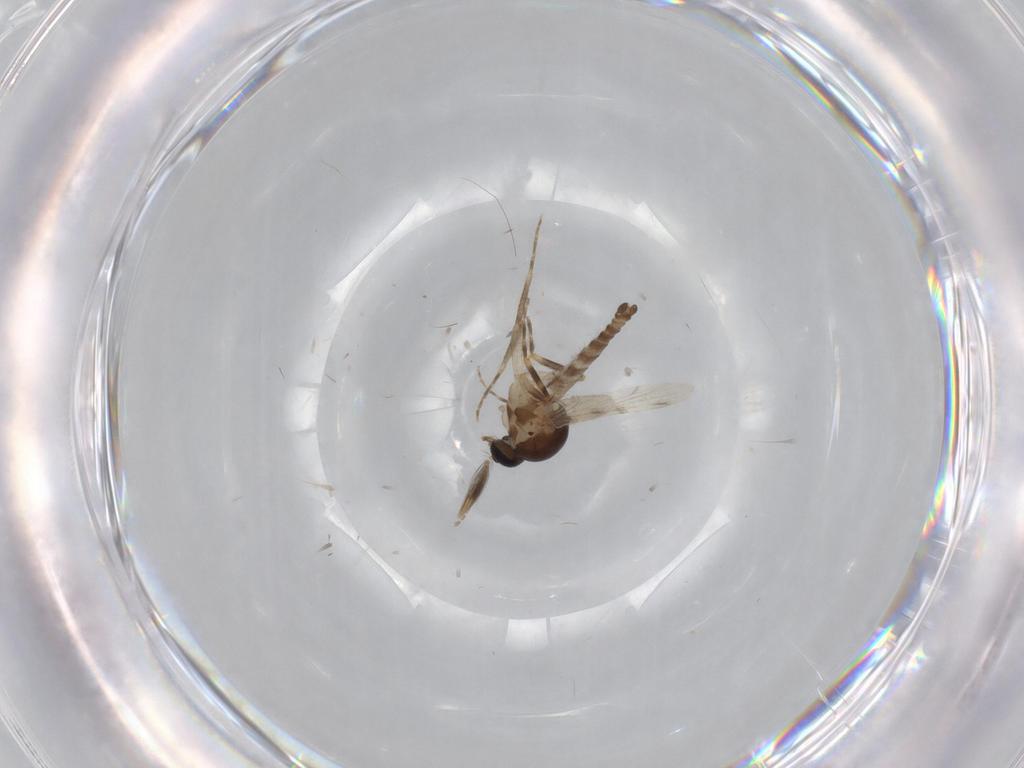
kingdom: Animalia
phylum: Arthropoda
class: Insecta
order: Diptera
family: Ceratopogonidae
